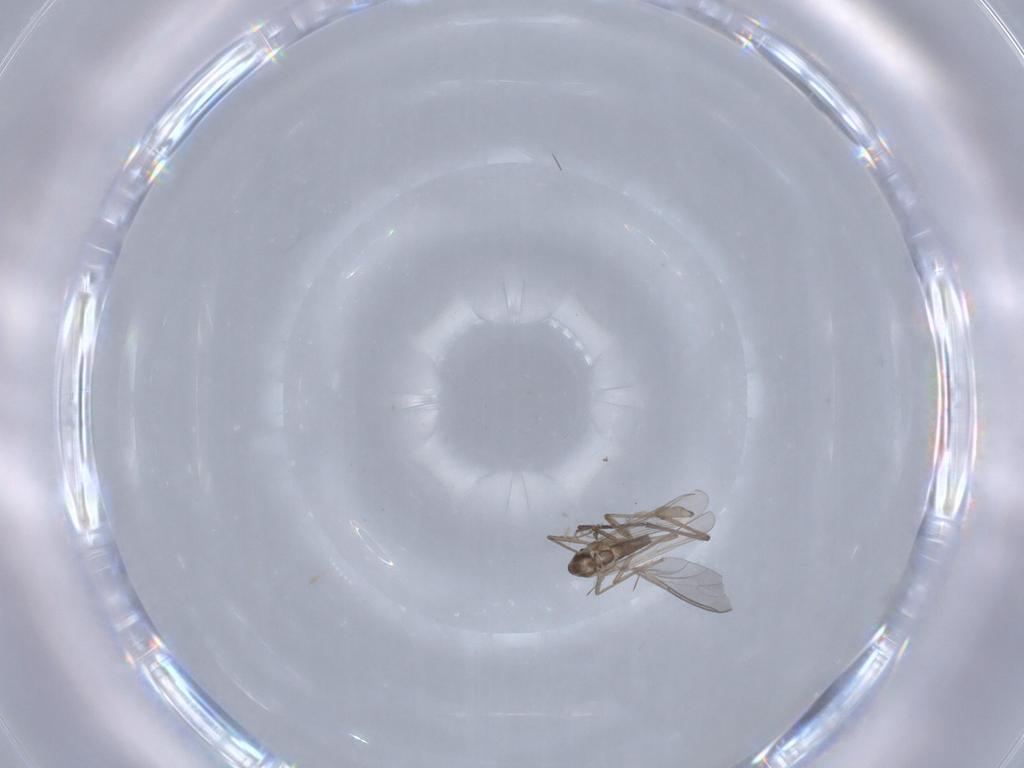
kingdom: Animalia
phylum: Arthropoda
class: Insecta
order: Diptera
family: Chironomidae
